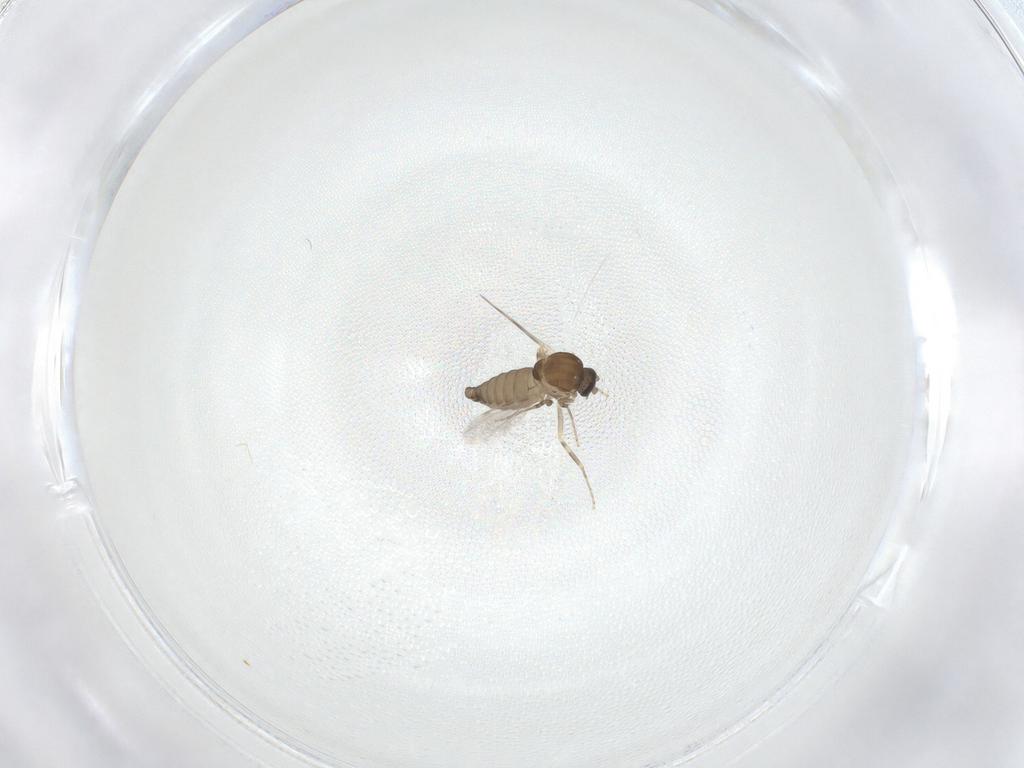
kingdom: Animalia
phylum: Arthropoda
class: Insecta
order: Diptera
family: Ceratopogonidae
